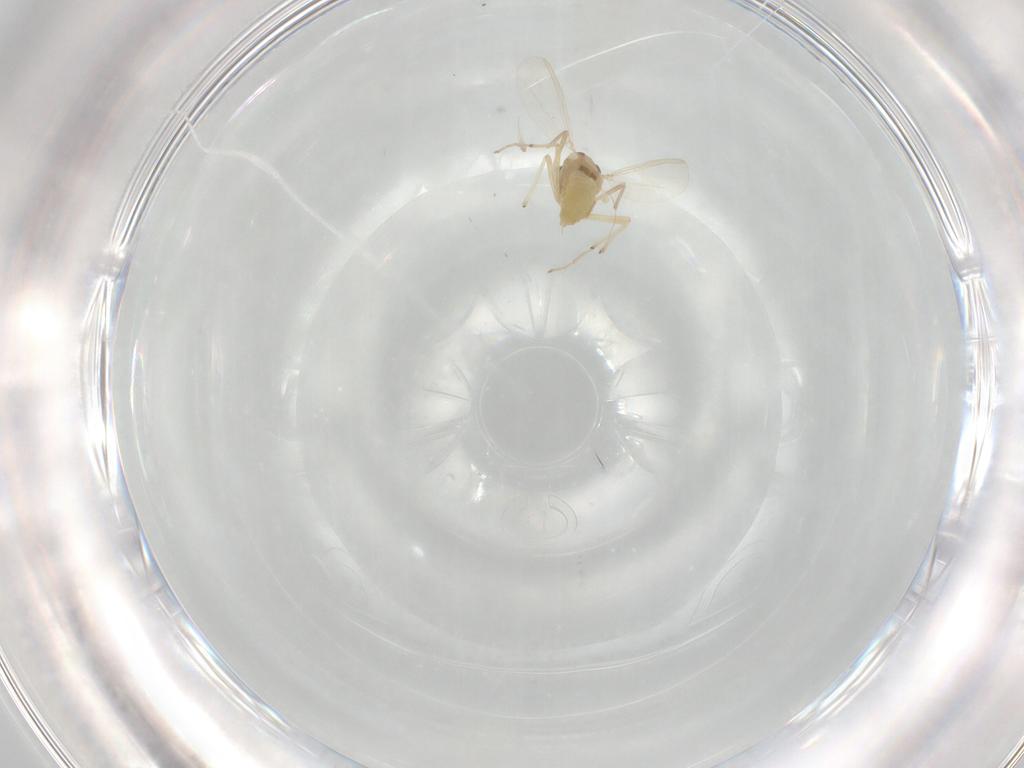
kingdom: Animalia
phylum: Arthropoda
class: Insecta
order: Diptera
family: Chironomidae
